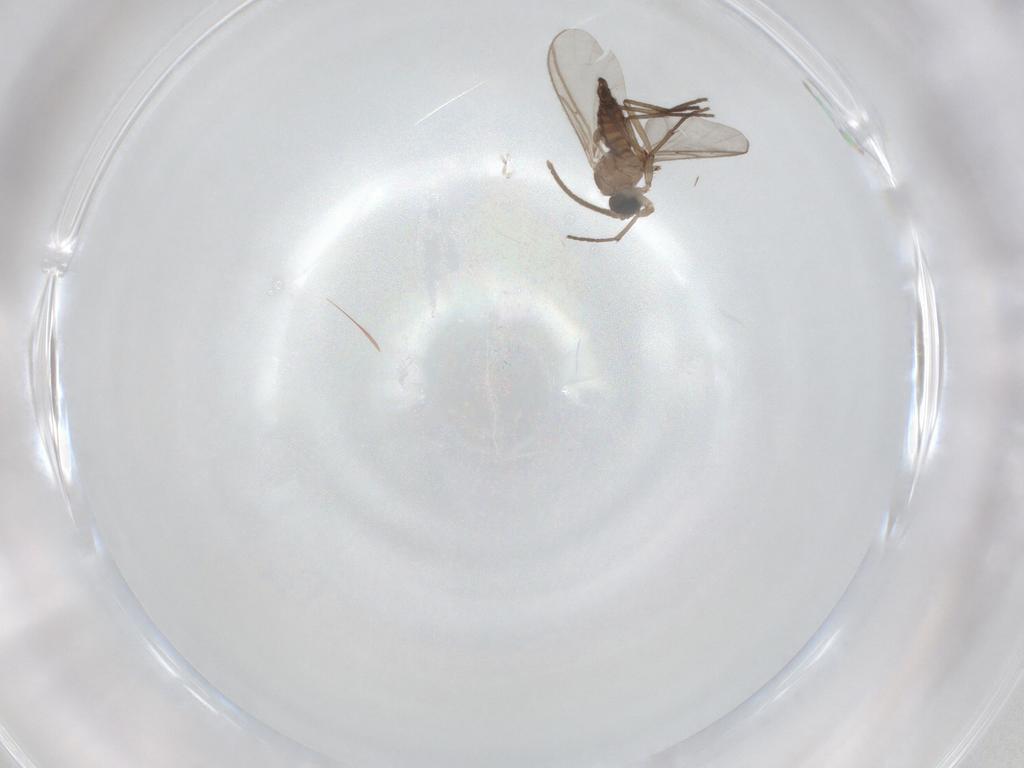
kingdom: Animalia
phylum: Arthropoda
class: Insecta
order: Diptera
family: Sciaridae
